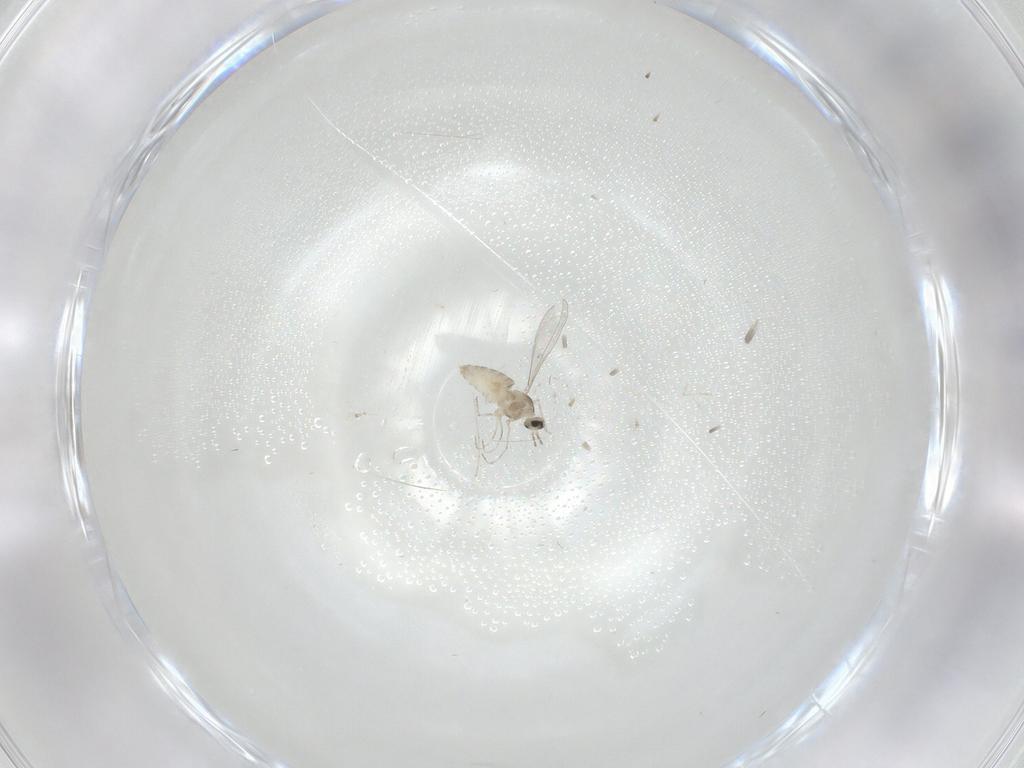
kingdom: Animalia
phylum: Arthropoda
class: Insecta
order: Diptera
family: Cecidomyiidae
